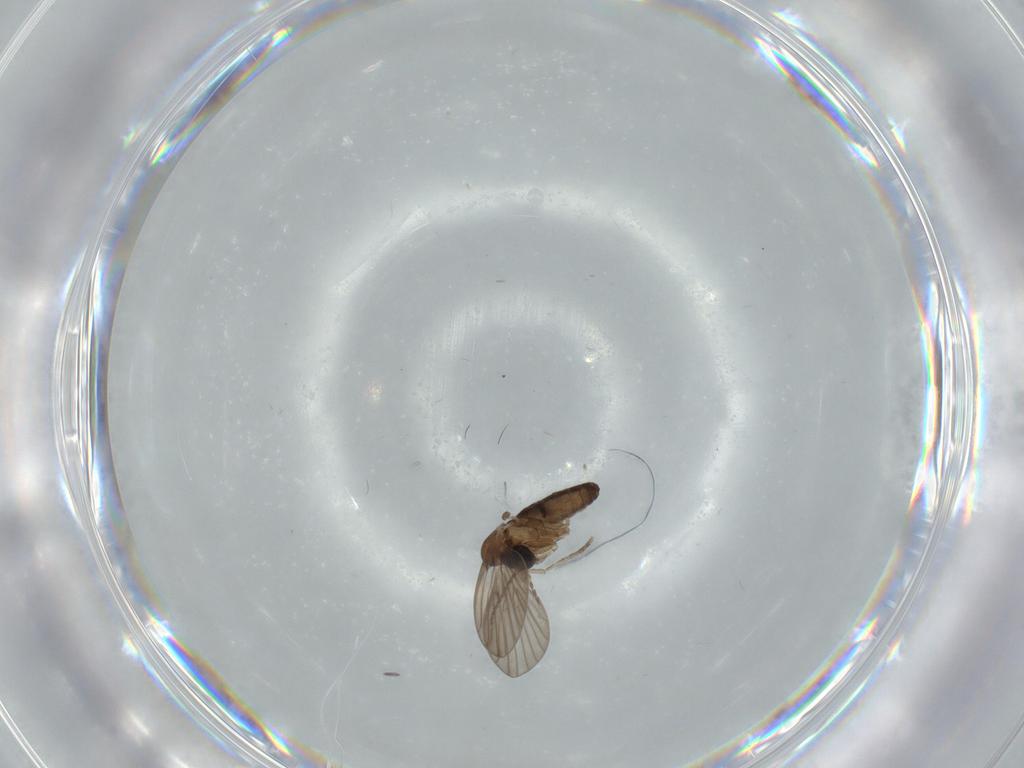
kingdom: Animalia
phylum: Arthropoda
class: Insecta
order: Diptera
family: Psychodidae
